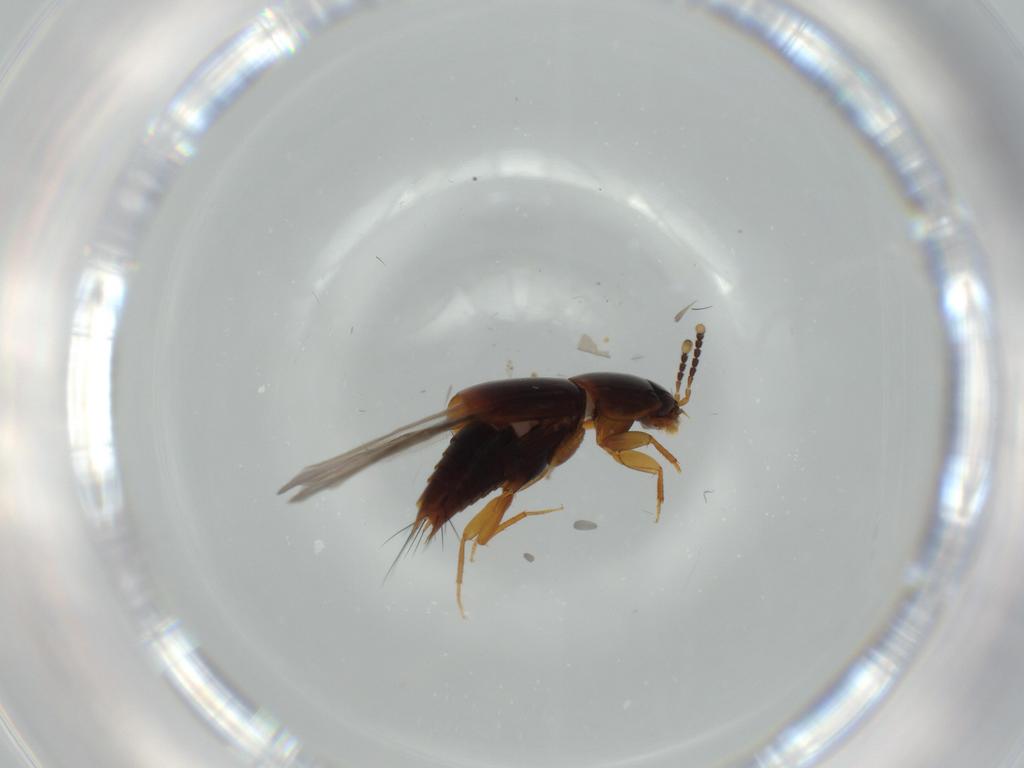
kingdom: Animalia
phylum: Arthropoda
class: Insecta
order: Coleoptera
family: Staphylinidae
